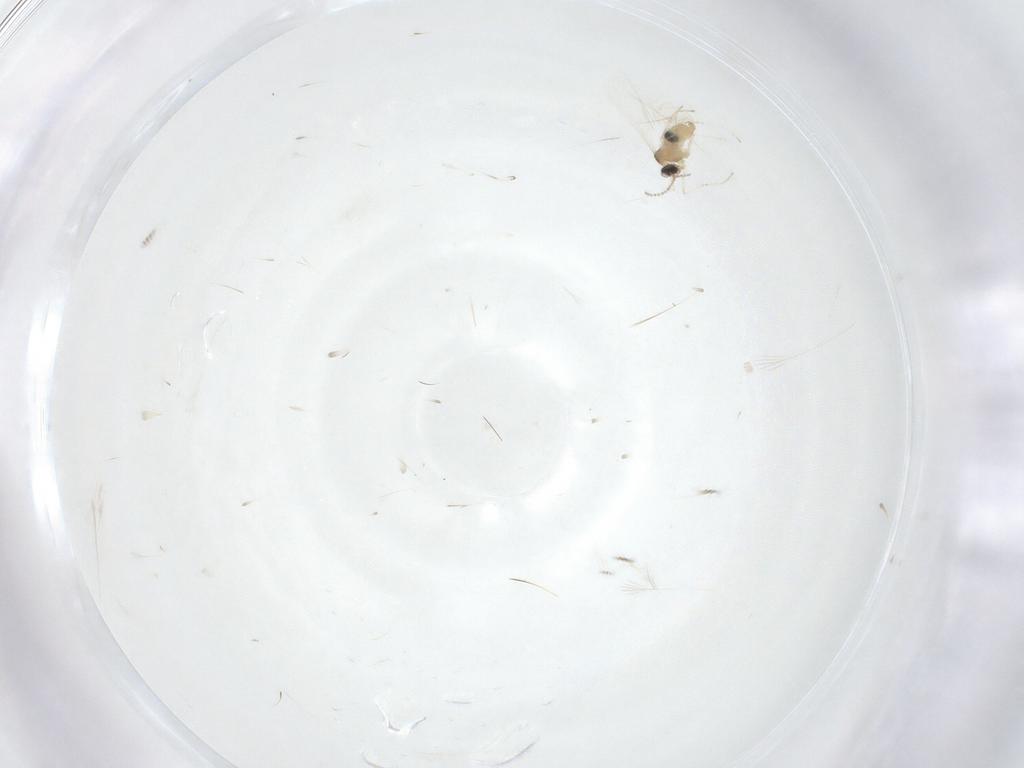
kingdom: Animalia
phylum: Arthropoda
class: Insecta
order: Diptera
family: Cecidomyiidae
